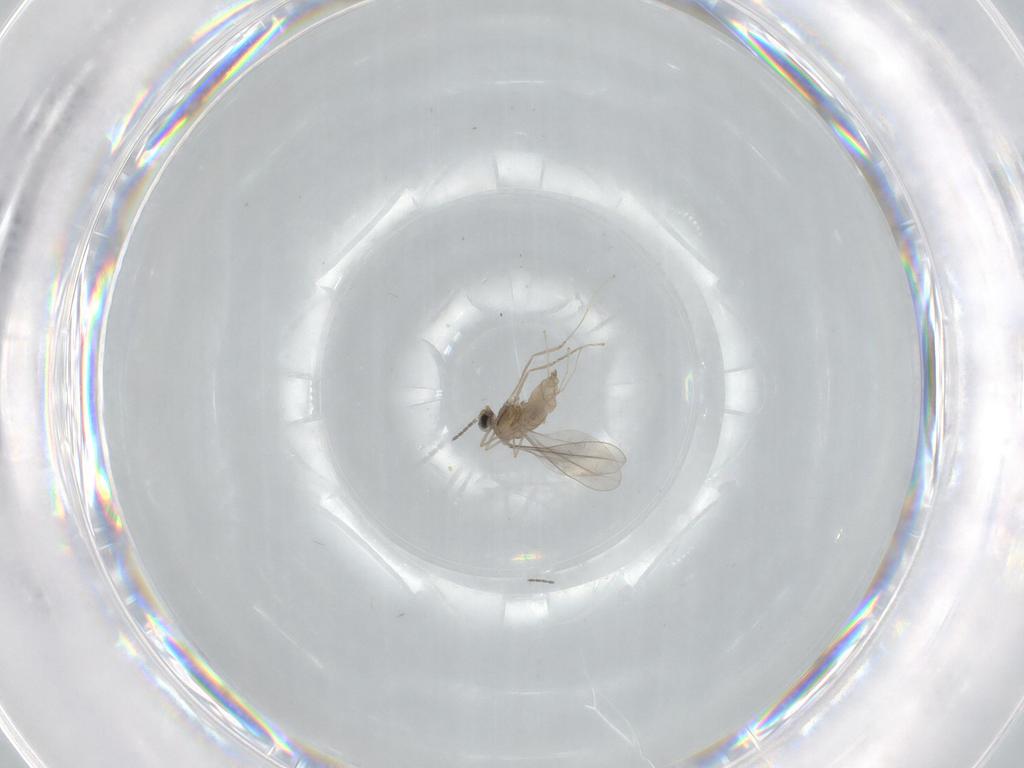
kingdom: Animalia
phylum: Arthropoda
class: Insecta
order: Diptera
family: Cecidomyiidae
